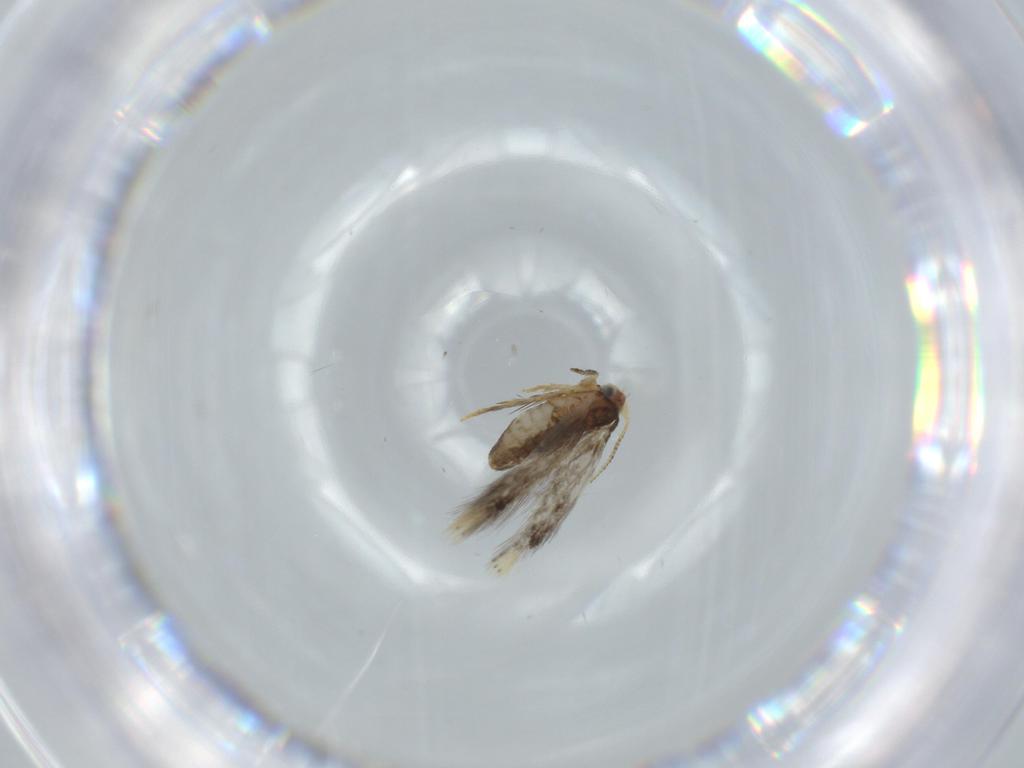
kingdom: Animalia
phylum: Arthropoda
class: Insecta
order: Lepidoptera
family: Nepticulidae
